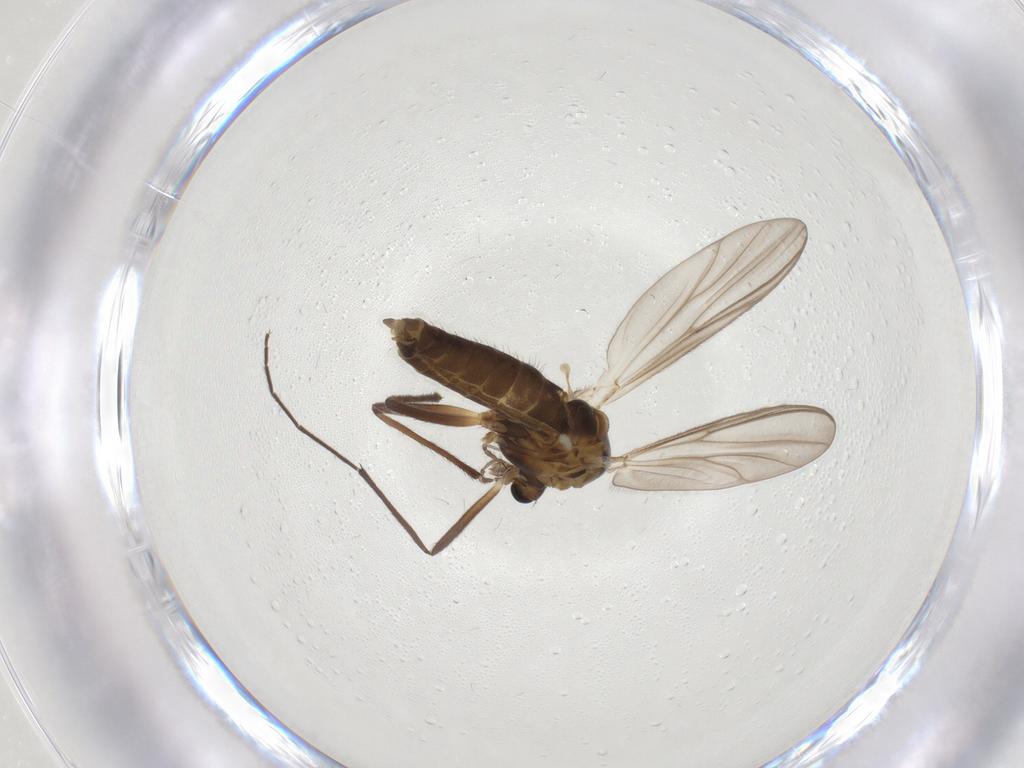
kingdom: Animalia
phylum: Arthropoda
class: Insecta
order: Diptera
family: Chironomidae
